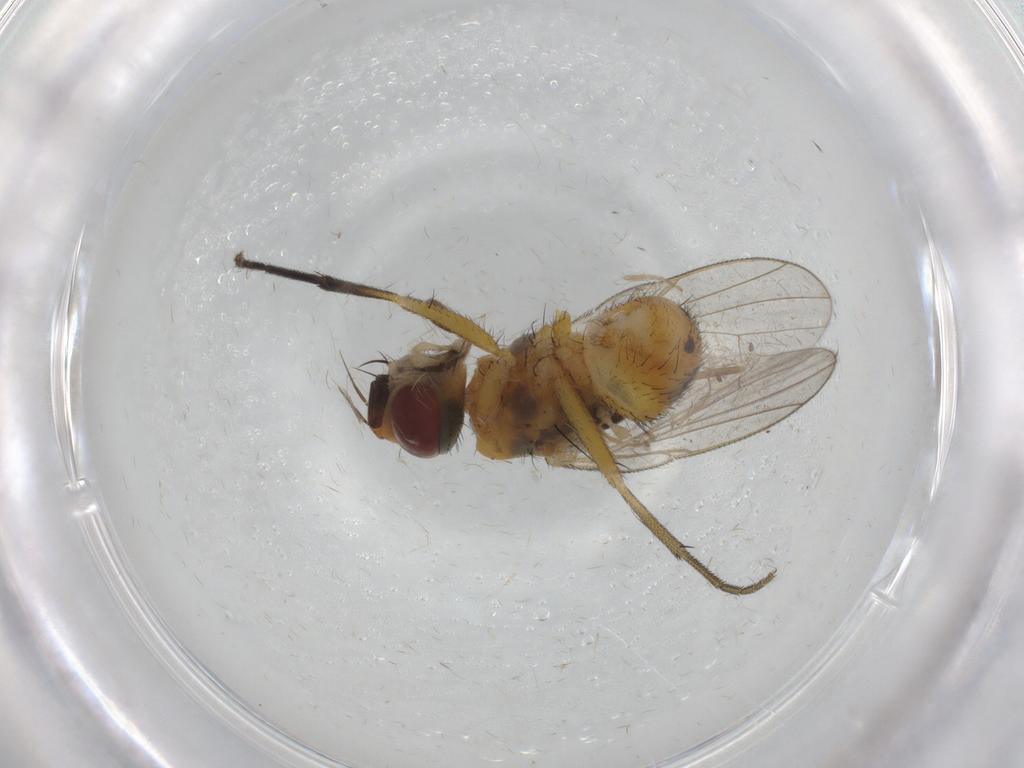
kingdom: Animalia
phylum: Arthropoda
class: Insecta
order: Diptera
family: Muscidae
